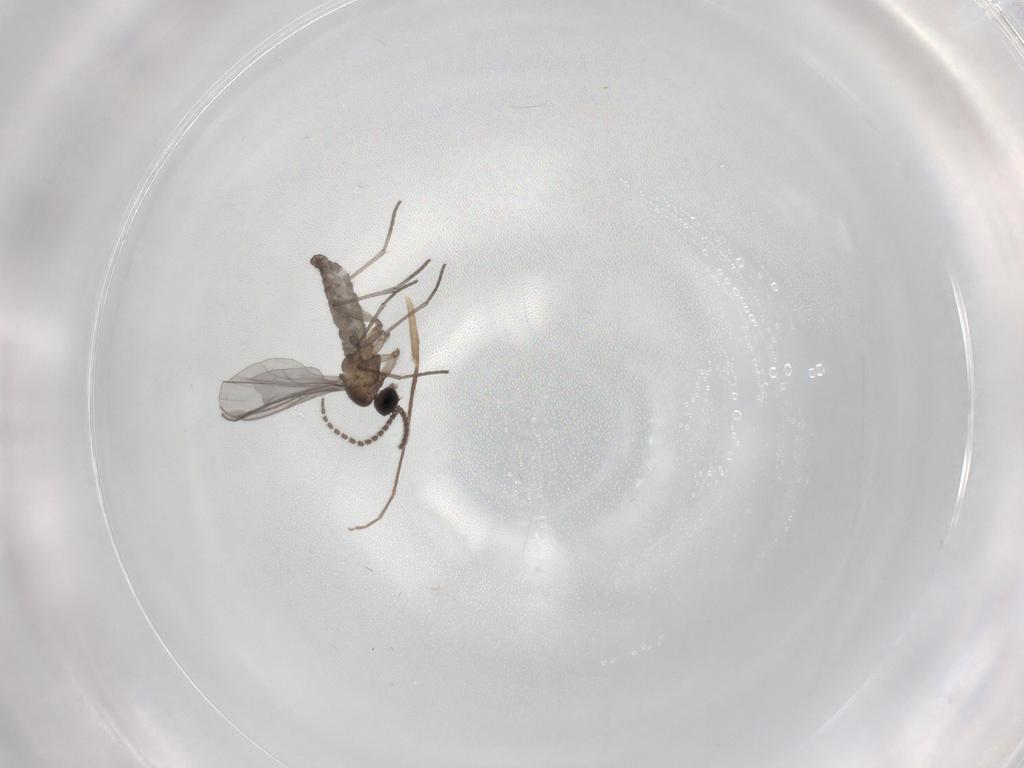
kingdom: Animalia
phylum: Arthropoda
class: Insecta
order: Diptera
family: Chironomidae
